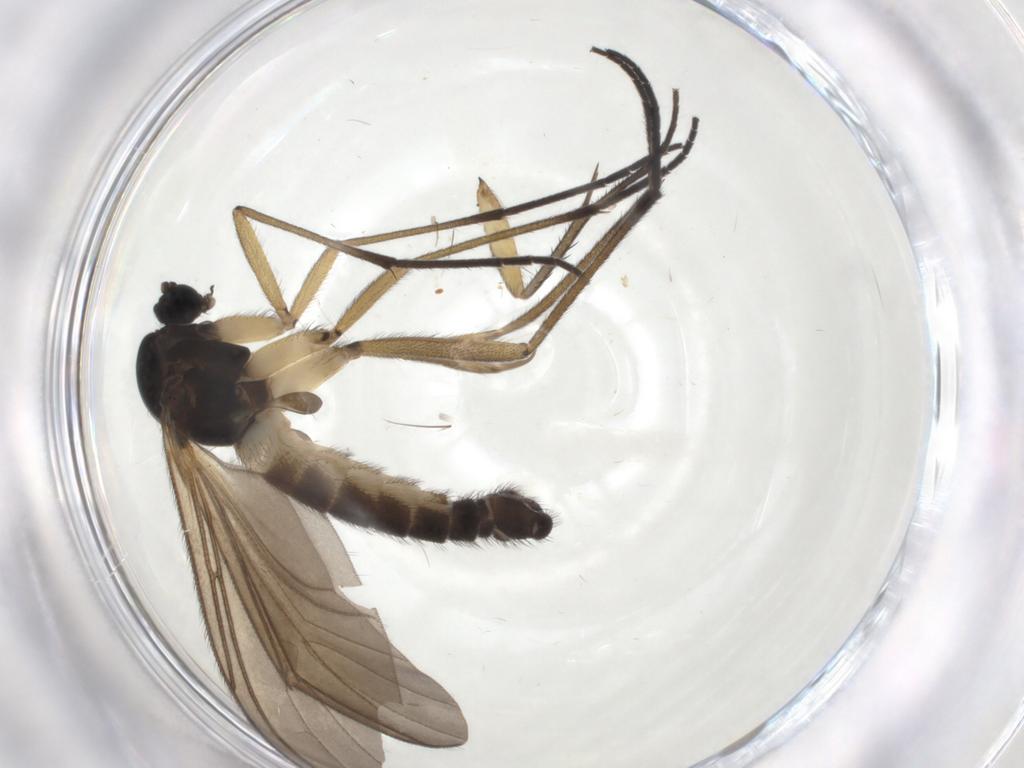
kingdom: Animalia
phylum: Arthropoda
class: Insecta
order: Diptera
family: Sciaridae
